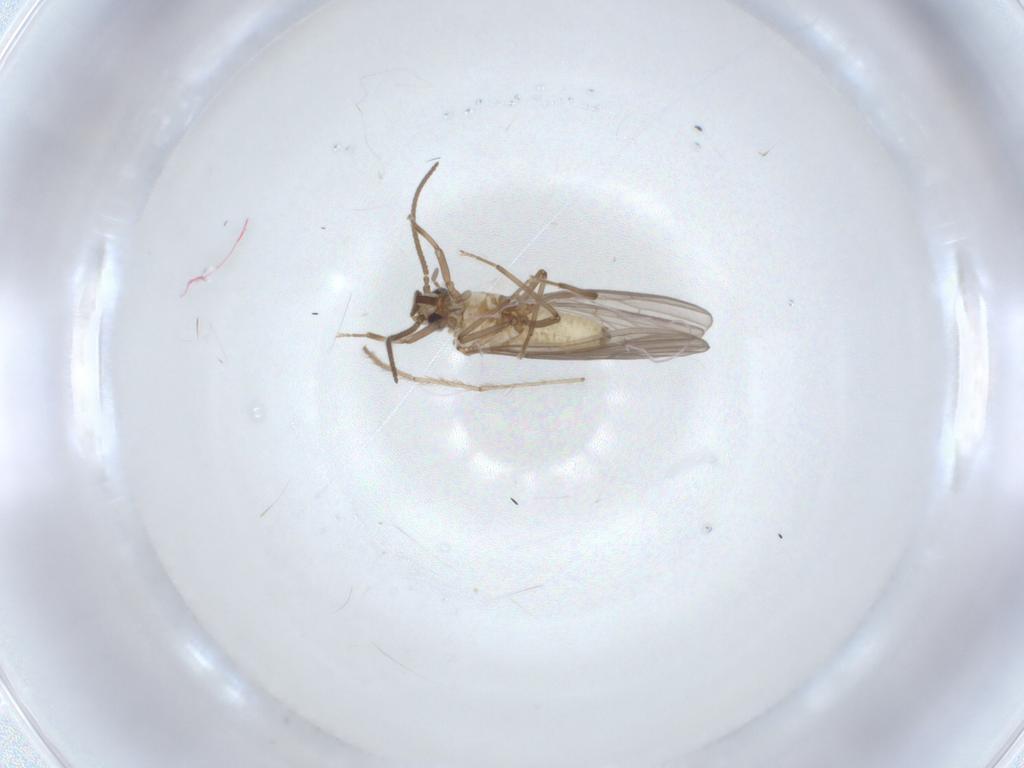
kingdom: Animalia
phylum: Arthropoda
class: Insecta
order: Diptera
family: Chironomidae
